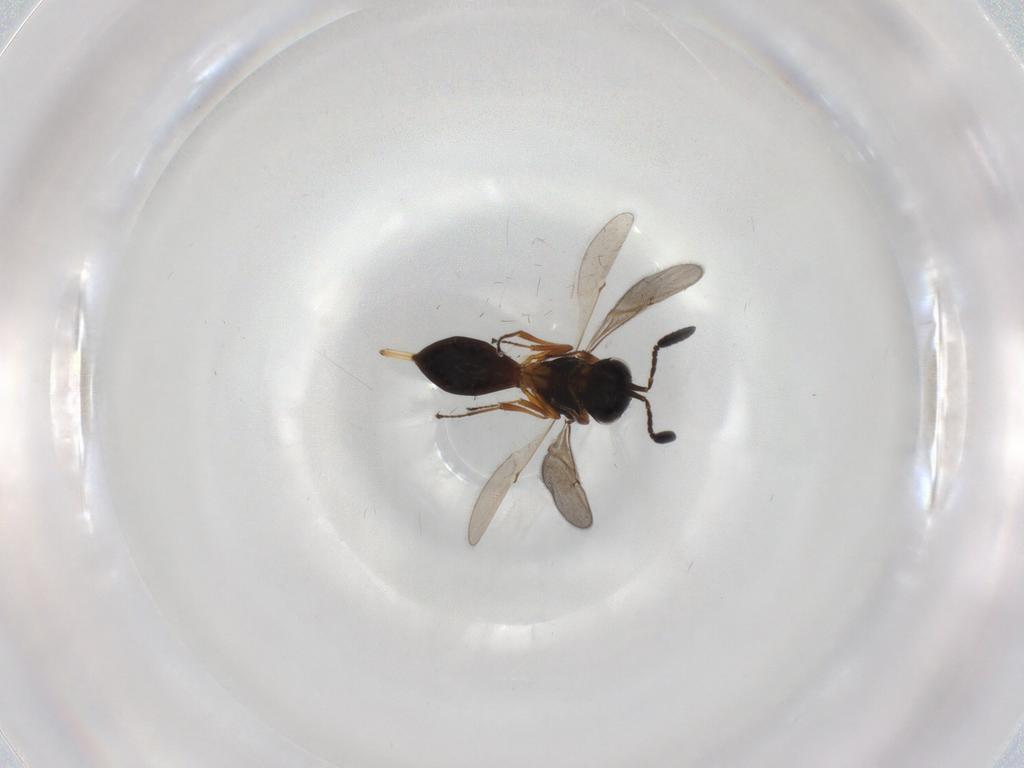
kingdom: Animalia
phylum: Arthropoda
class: Insecta
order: Hymenoptera
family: Scelionidae
